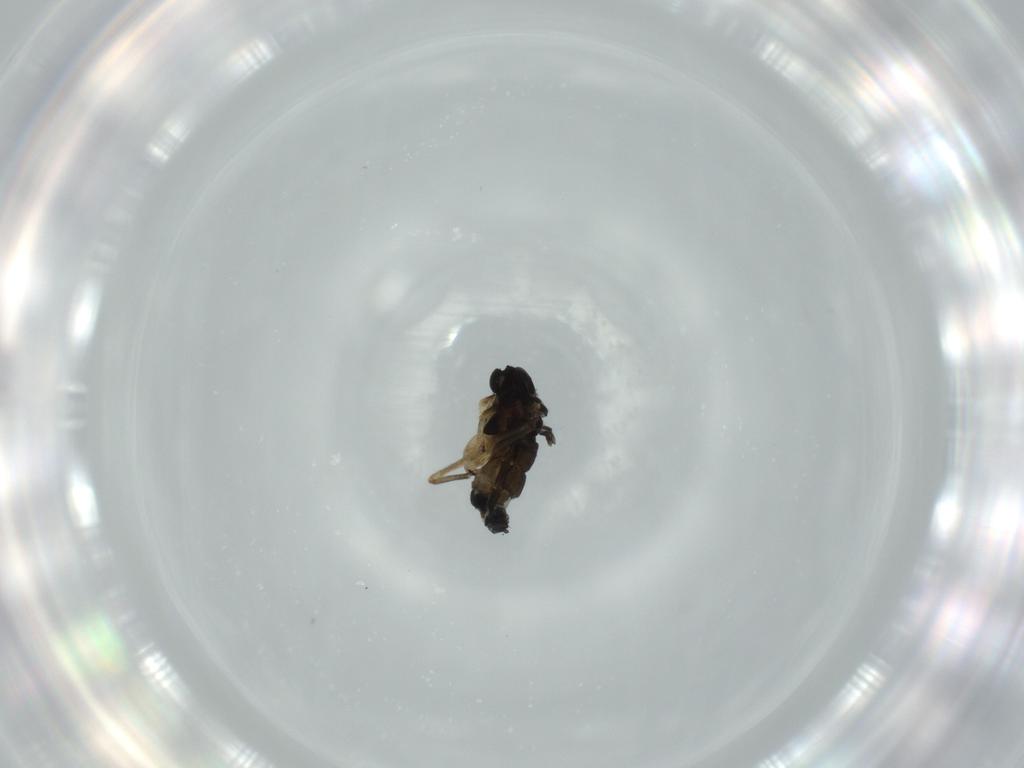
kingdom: Animalia
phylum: Arthropoda
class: Insecta
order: Diptera
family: Sciaridae
